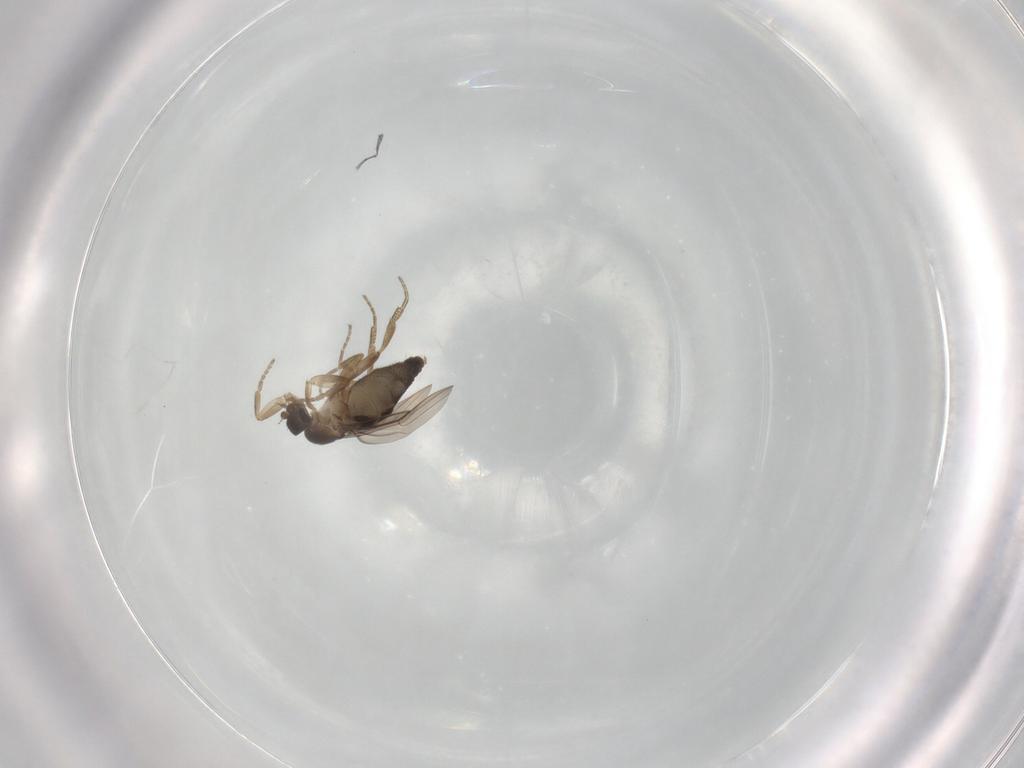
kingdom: Animalia
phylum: Arthropoda
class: Insecta
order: Diptera
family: Phoridae
